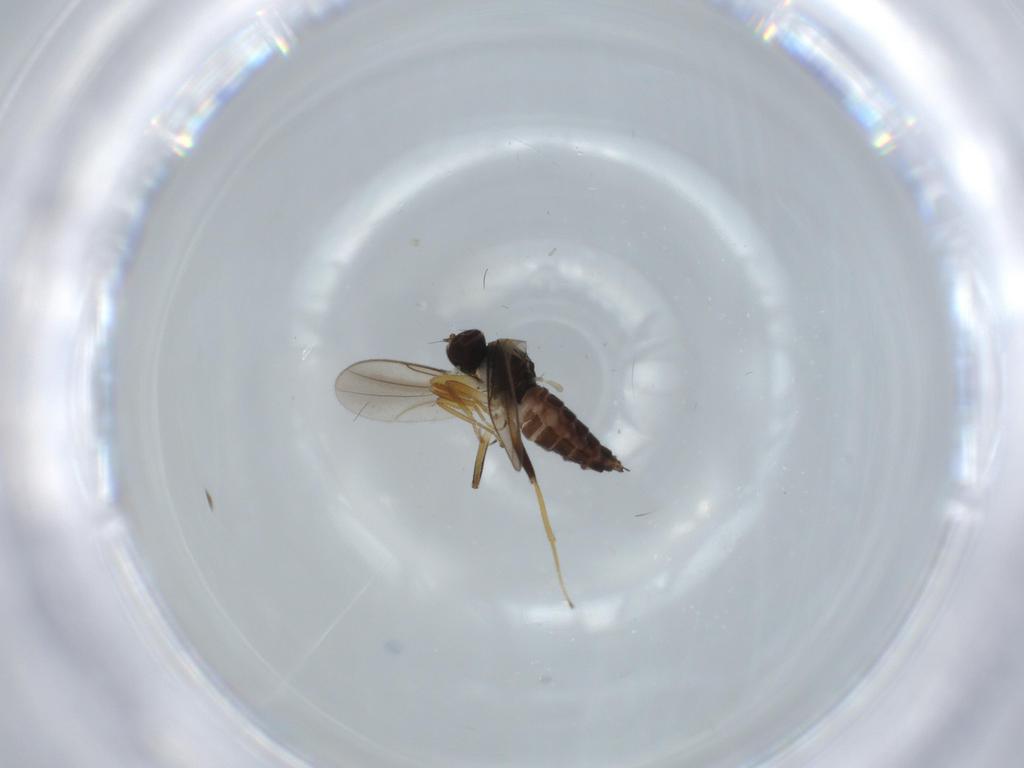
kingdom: Animalia
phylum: Arthropoda
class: Insecta
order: Diptera
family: Hybotidae
